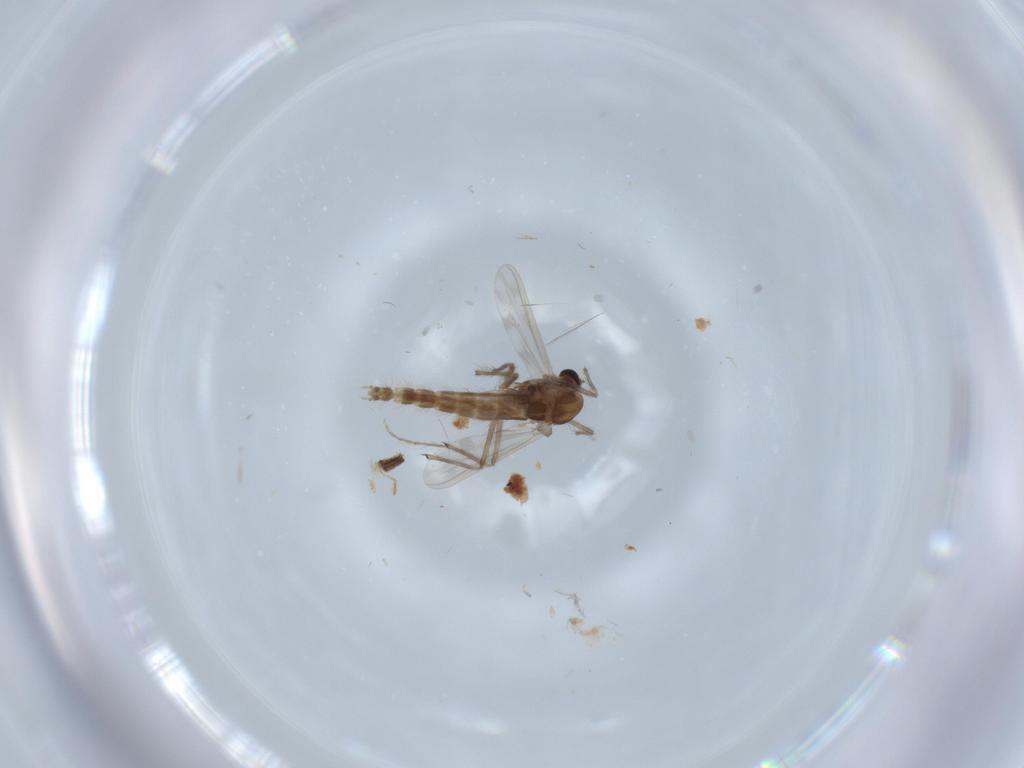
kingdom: Animalia
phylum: Arthropoda
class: Insecta
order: Diptera
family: Chironomidae
